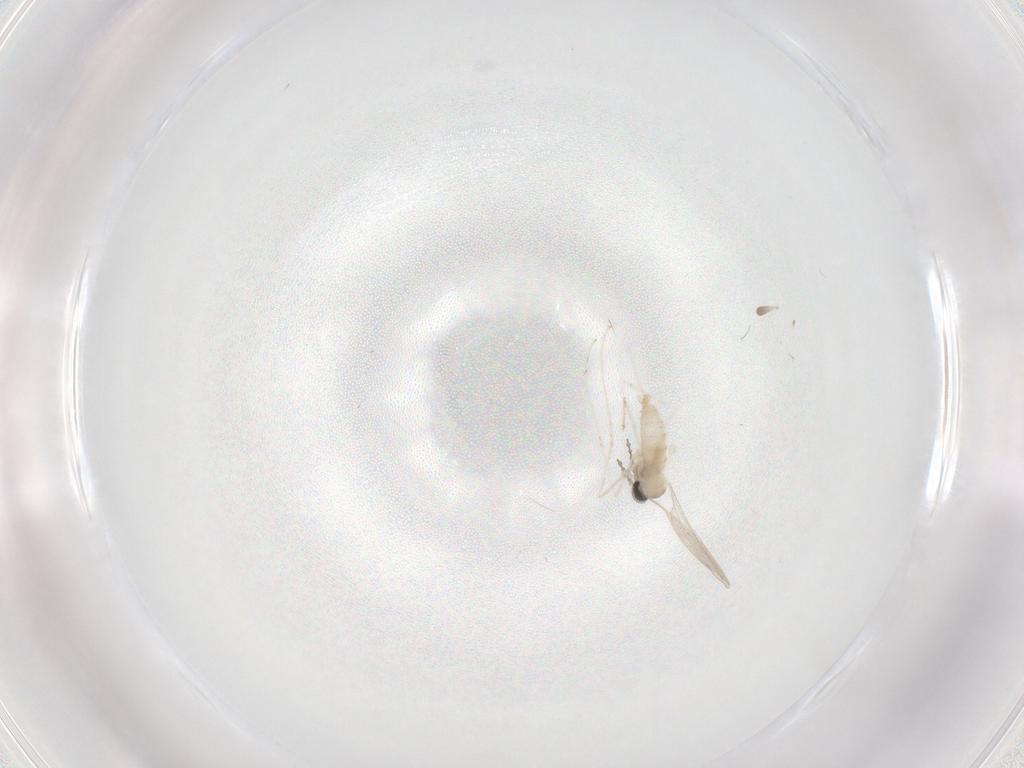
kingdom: Animalia
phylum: Arthropoda
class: Insecta
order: Diptera
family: Cecidomyiidae
